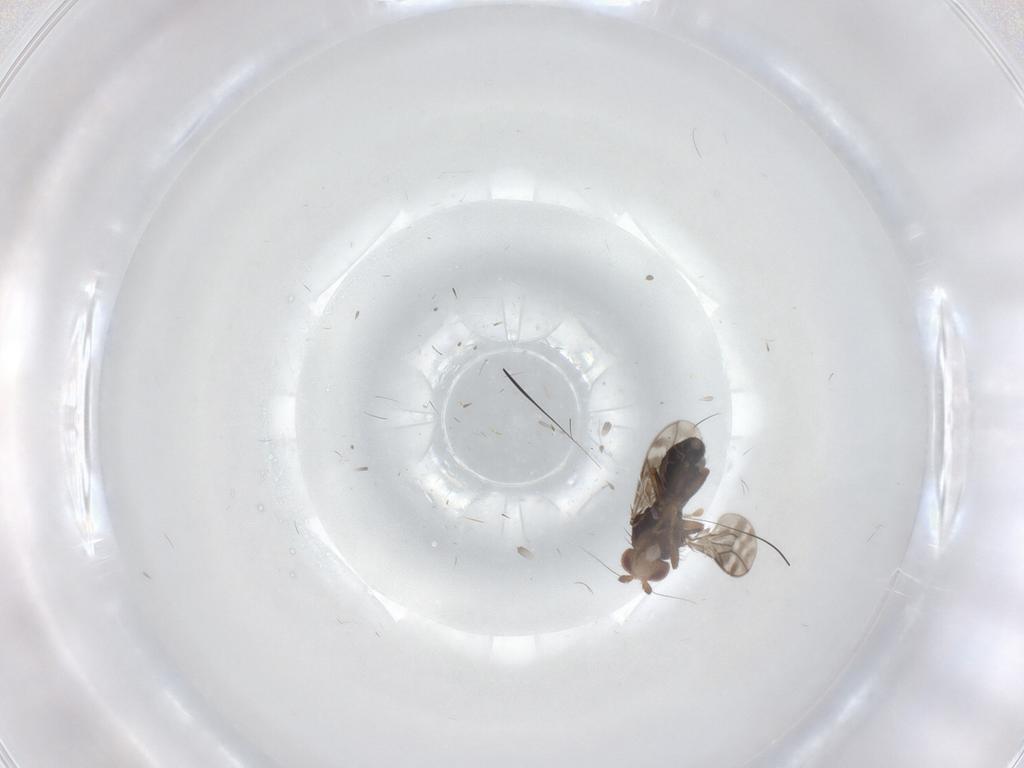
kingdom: Animalia
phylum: Arthropoda
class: Insecta
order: Diptera
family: Sphaeroceridae
